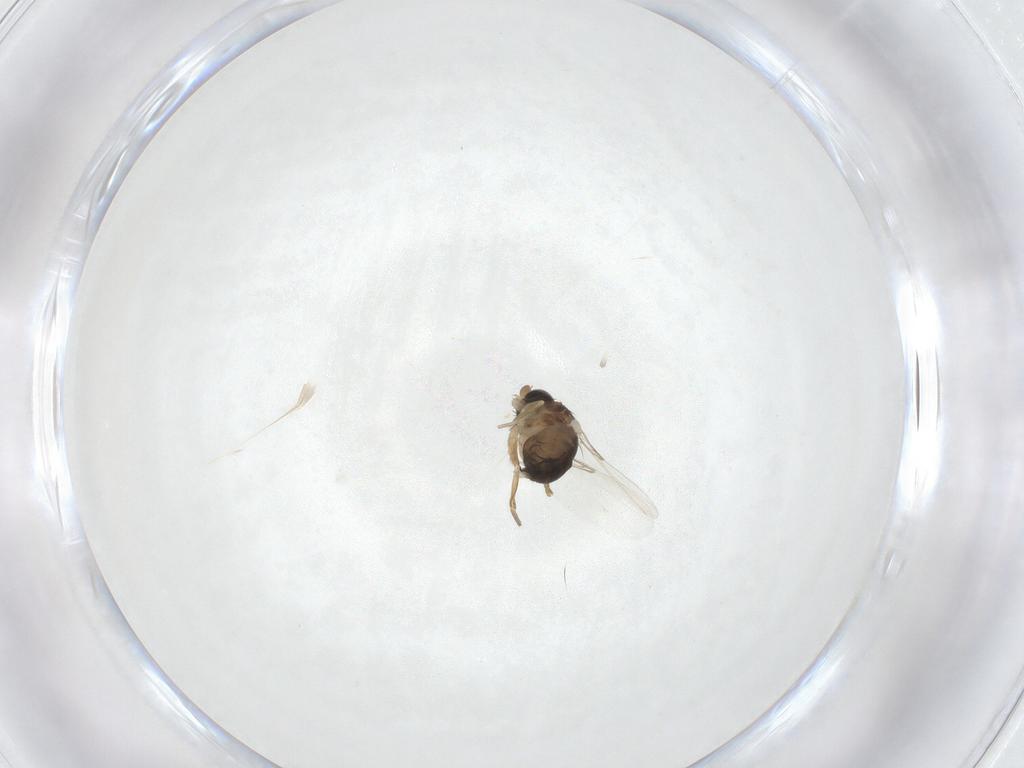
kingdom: Animalia
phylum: Arthropoda
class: Insecta
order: Diptera
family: Phoridae
